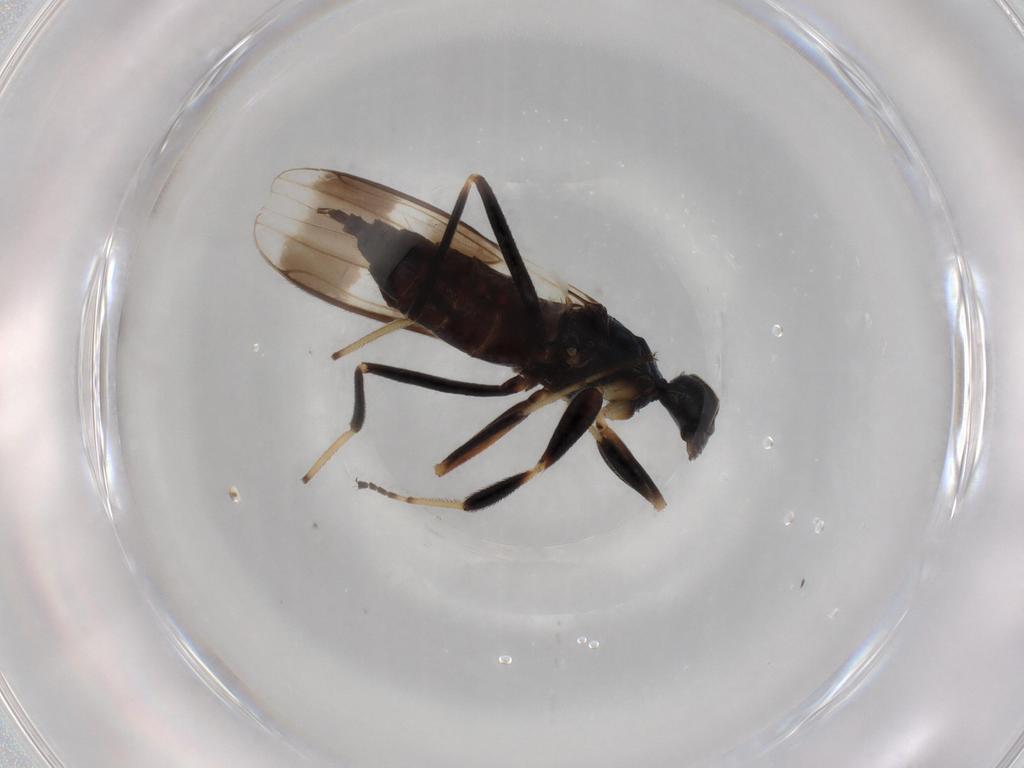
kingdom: Animalia
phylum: Arthropoda
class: Insecta
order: Diptera
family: Hybotidae
